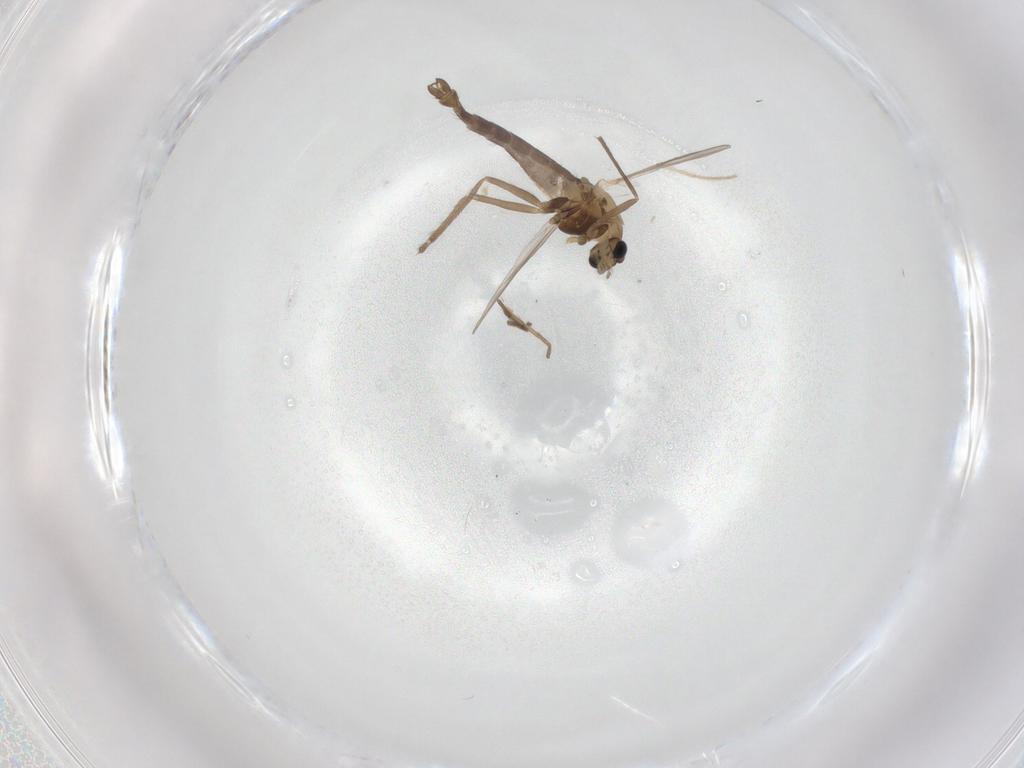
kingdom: Animalia
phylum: Arthropoda
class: Insecta
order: Diptera
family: Chironomidae
